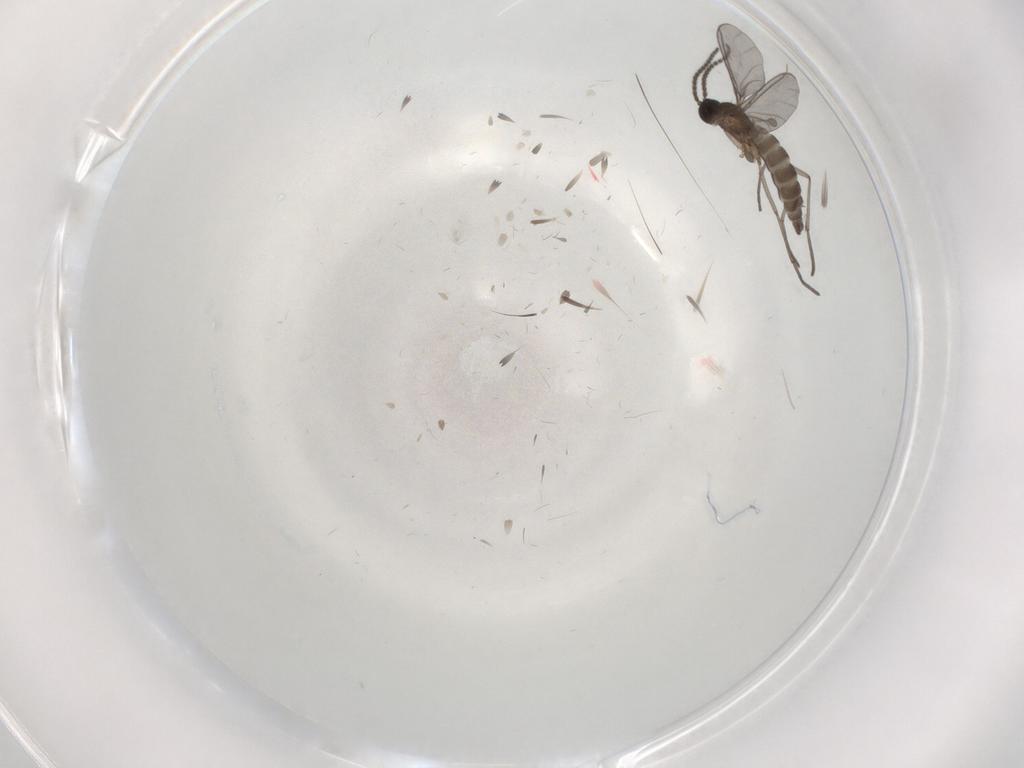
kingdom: Animalia
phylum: Arthropoda
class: Insecta
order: Diptera
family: Sciaridae
